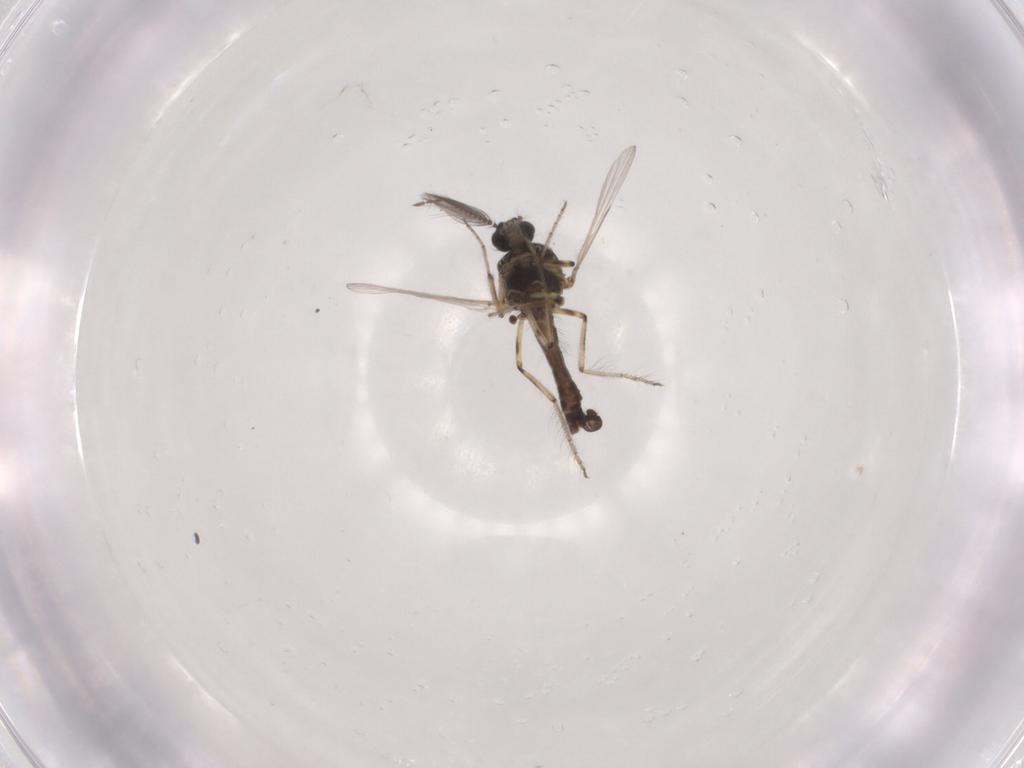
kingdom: Animalia
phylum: Arthropoda
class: Insecta
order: Diptera
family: Ceratopogonidae
